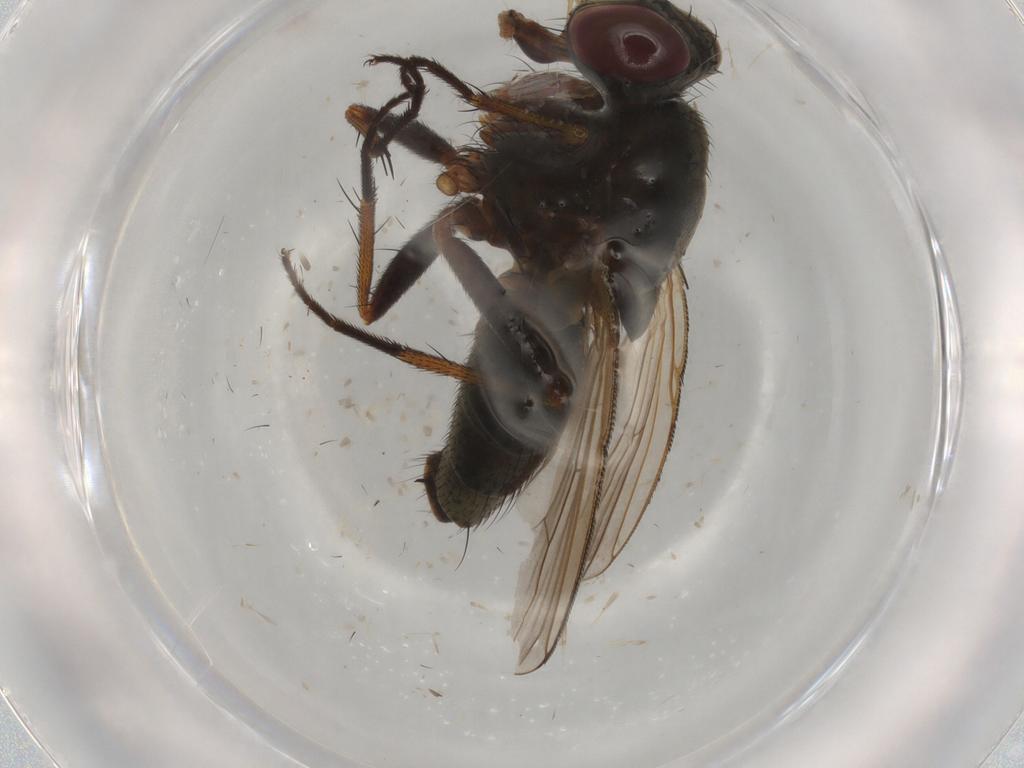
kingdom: Animalia
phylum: Arthropoda
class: Insecta
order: Diptera
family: Muscidae
